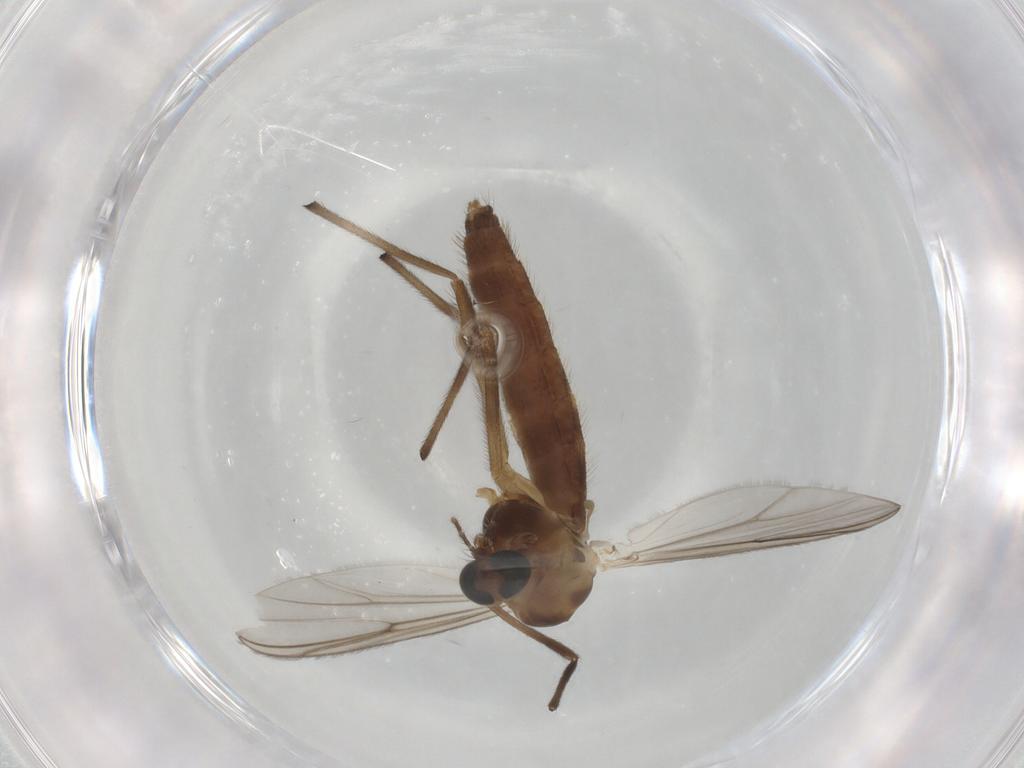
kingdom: Animalia
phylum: Arthropoda
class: Insecta
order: Diptera
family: Chironomidae
